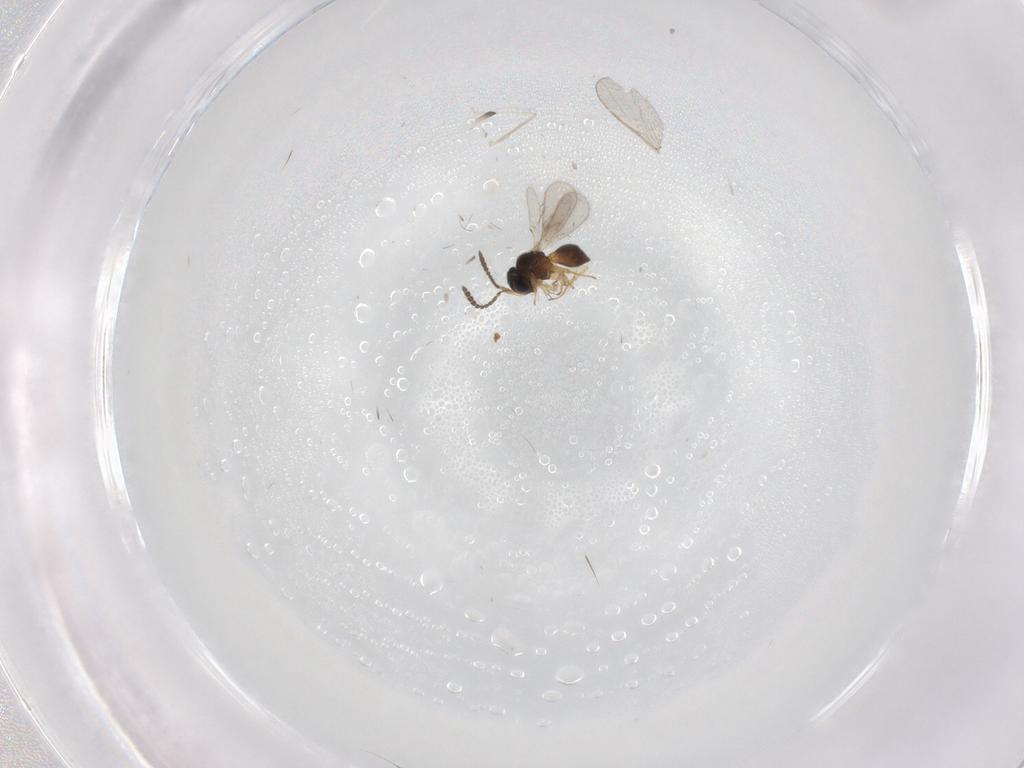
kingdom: Animalia
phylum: Arthropoda
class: Insecta
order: Hymenoptera
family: Scelionidae
